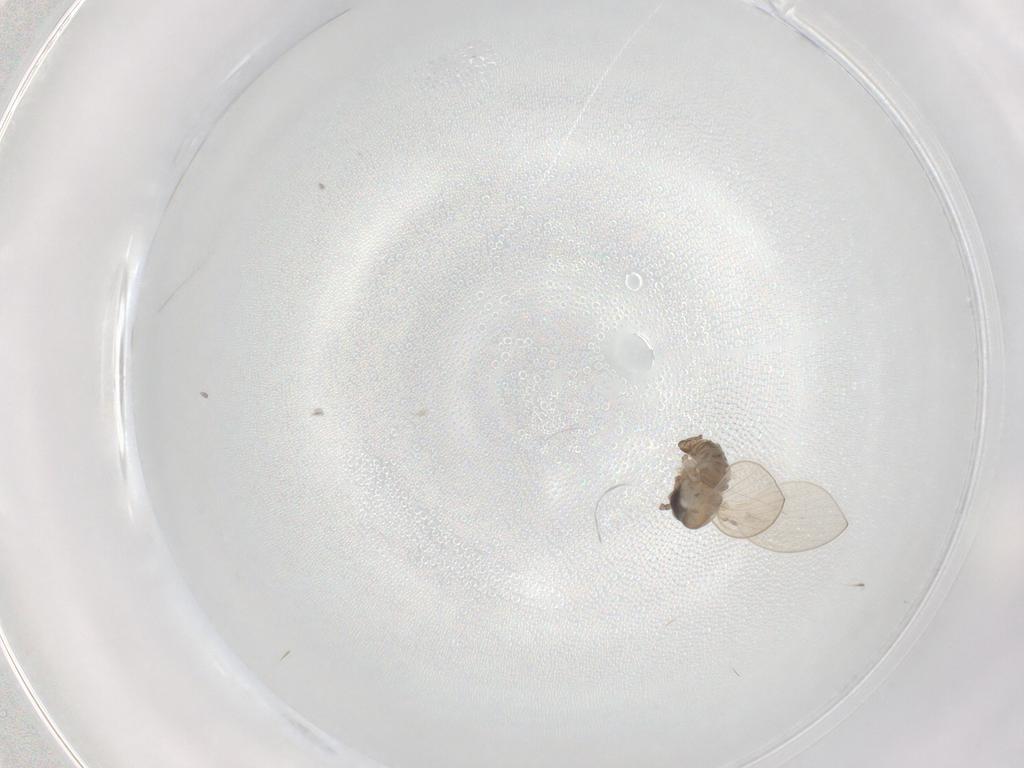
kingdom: Animalia
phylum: Arthropoda
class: Insecta
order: Diptera
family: Psychodidae
